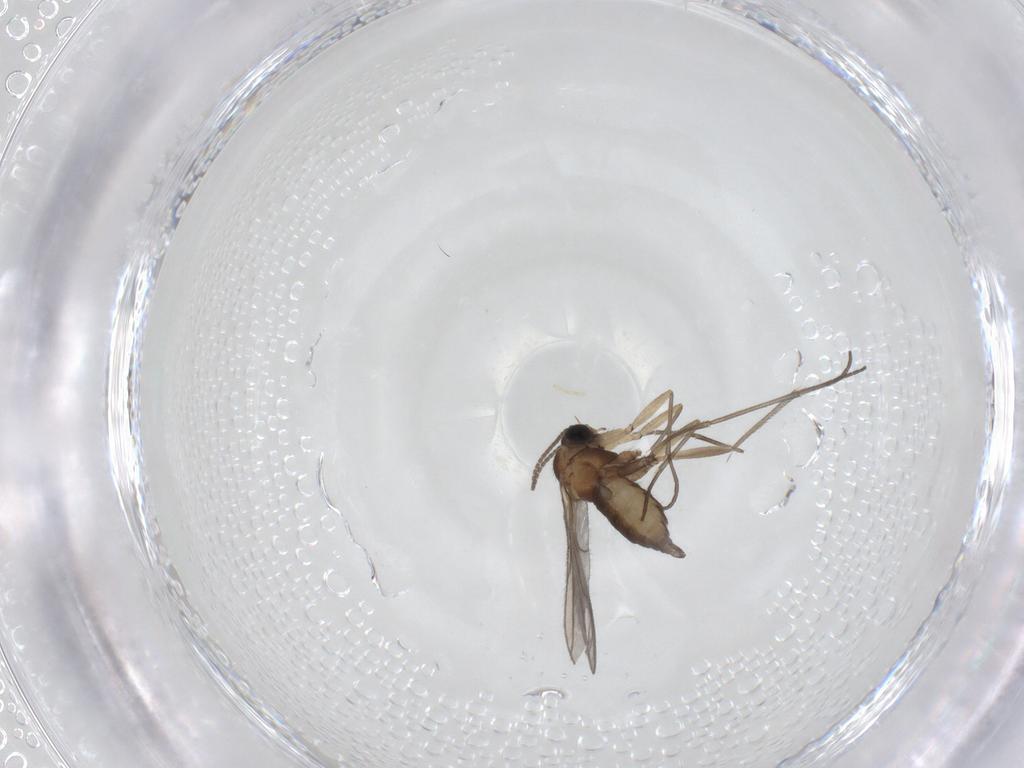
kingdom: Animalia
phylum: Arthropoda
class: Insecta
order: Diptera
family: Sciaridae
